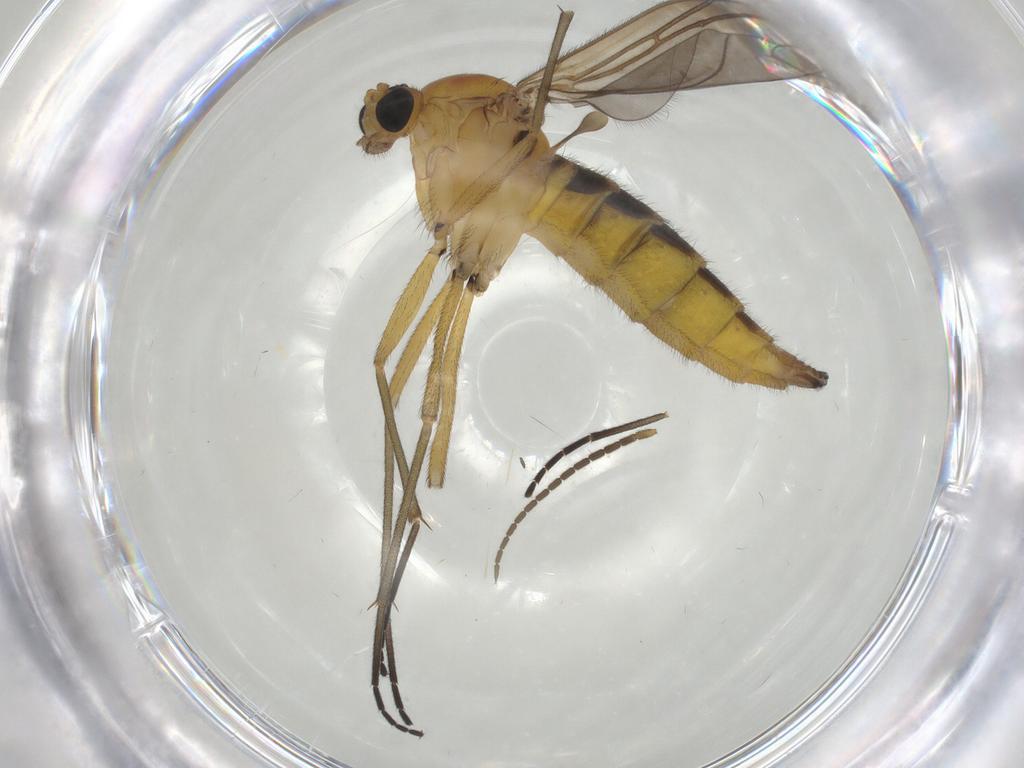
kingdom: Animalia
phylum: Arthropoda
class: Insecta
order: Diptera
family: Sciaridae
